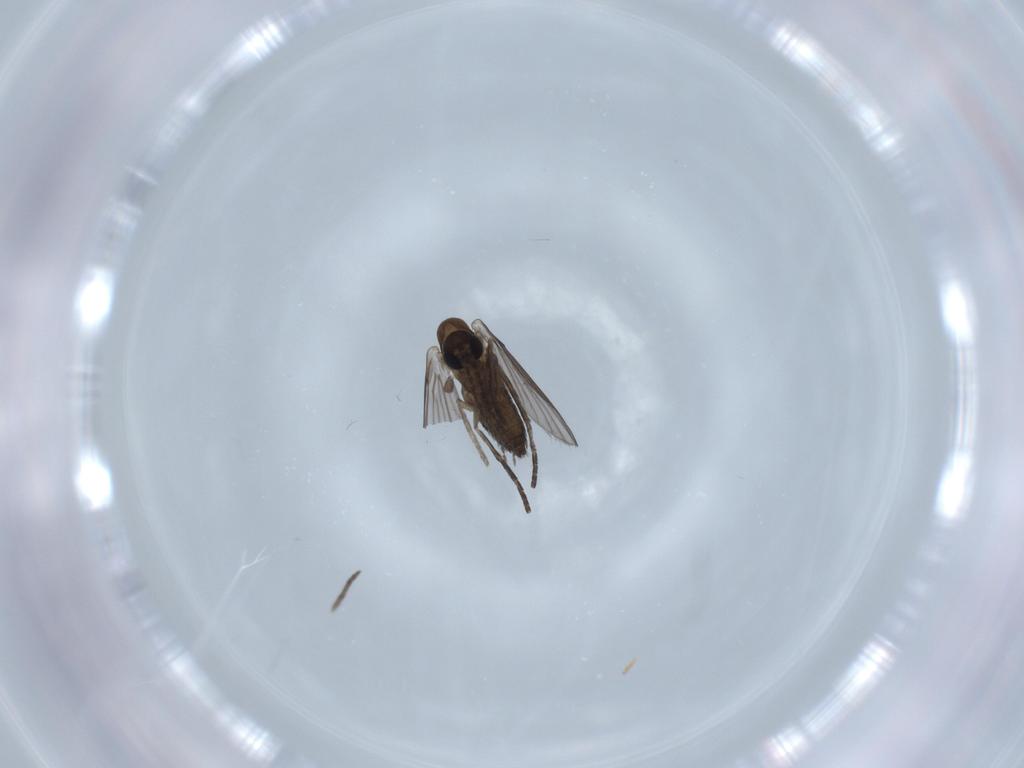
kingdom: Animalia
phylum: Arthropoda
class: Insecta
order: Diptera
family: Psychodidae
